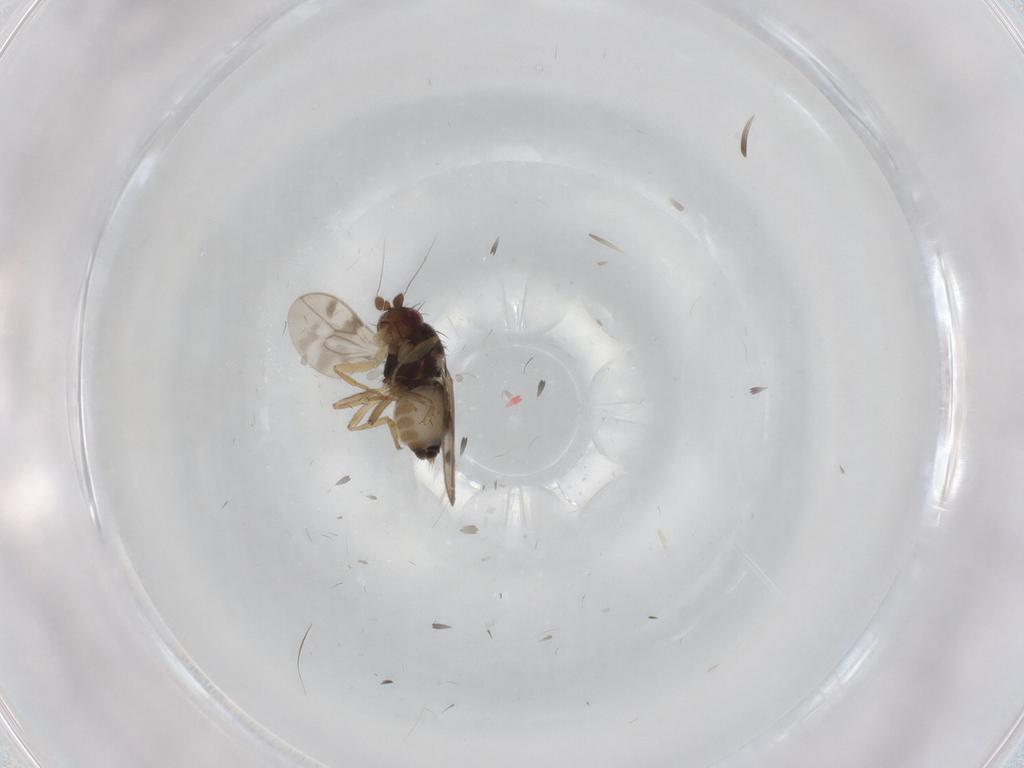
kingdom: Animalia
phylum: Arthropoda
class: Insecta
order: Diptera
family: Sphaeroceridae
